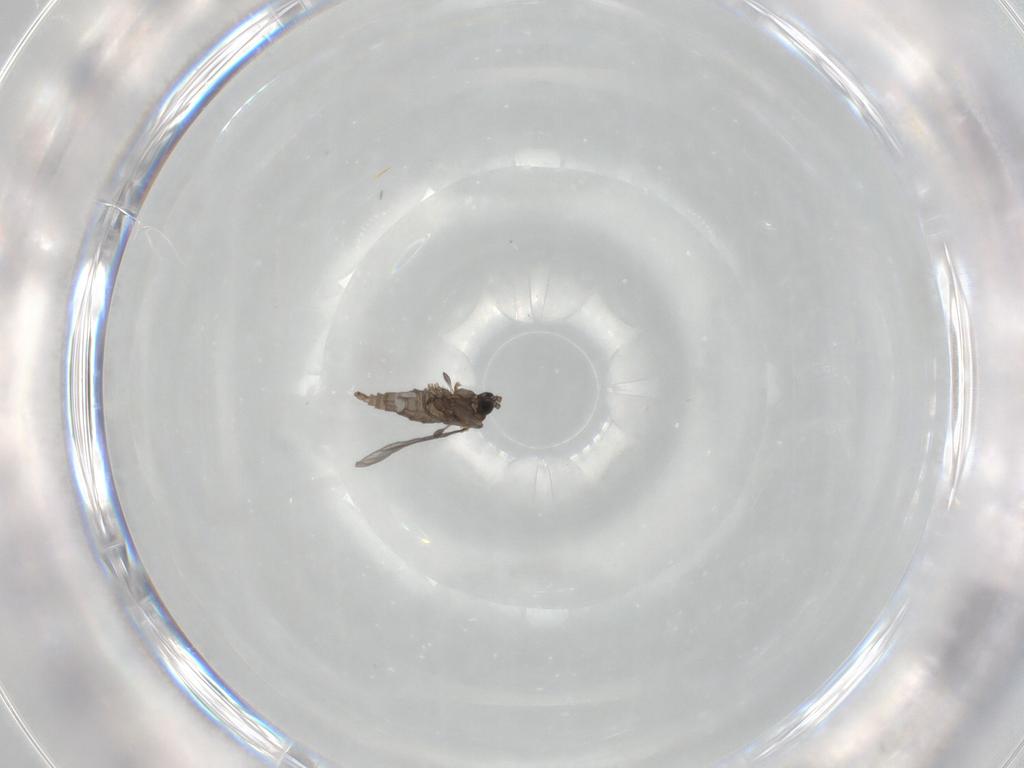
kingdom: Animalia
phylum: Arthropoda
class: Insecta
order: Diptera
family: Sciaridae
